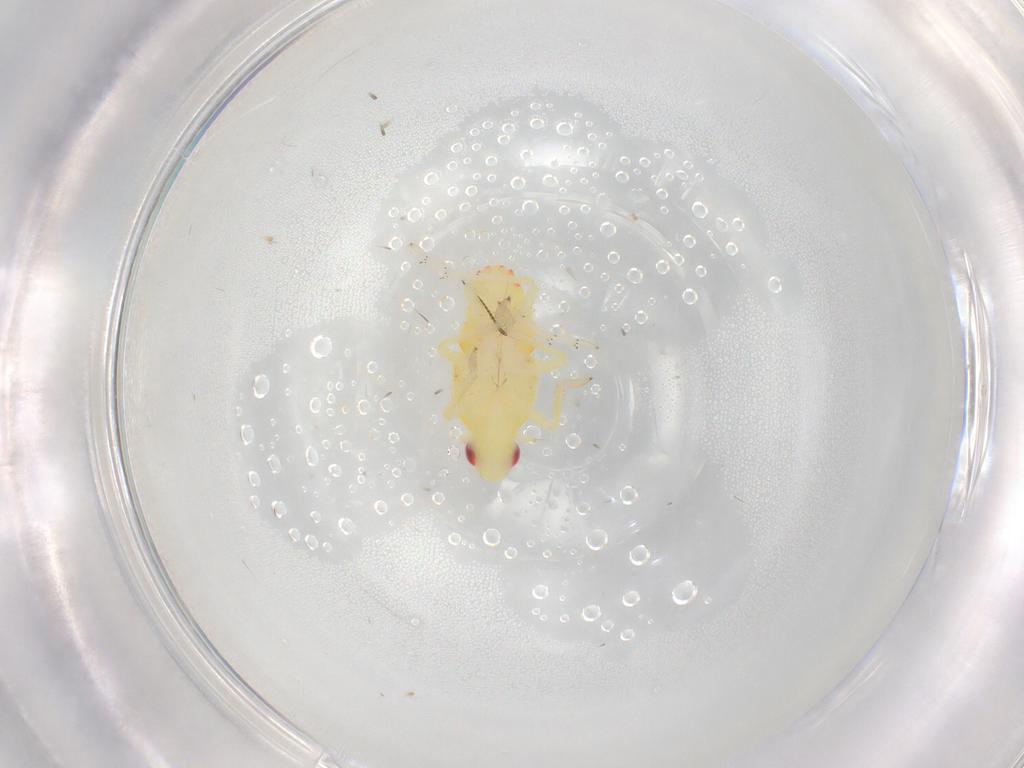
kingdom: Animalia
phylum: Arthropoda
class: Insecta
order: Hemiptera
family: Tropiduchidae
